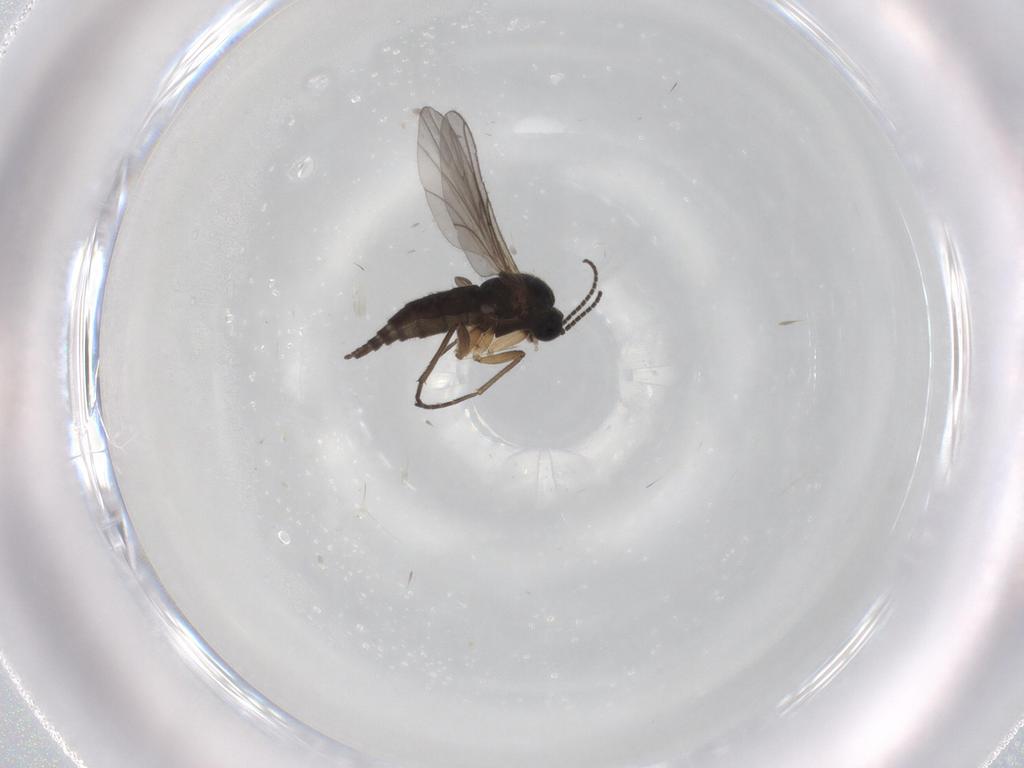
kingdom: Animalia
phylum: Arthropoda
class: Insecta
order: Diptera
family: Sciaridae
